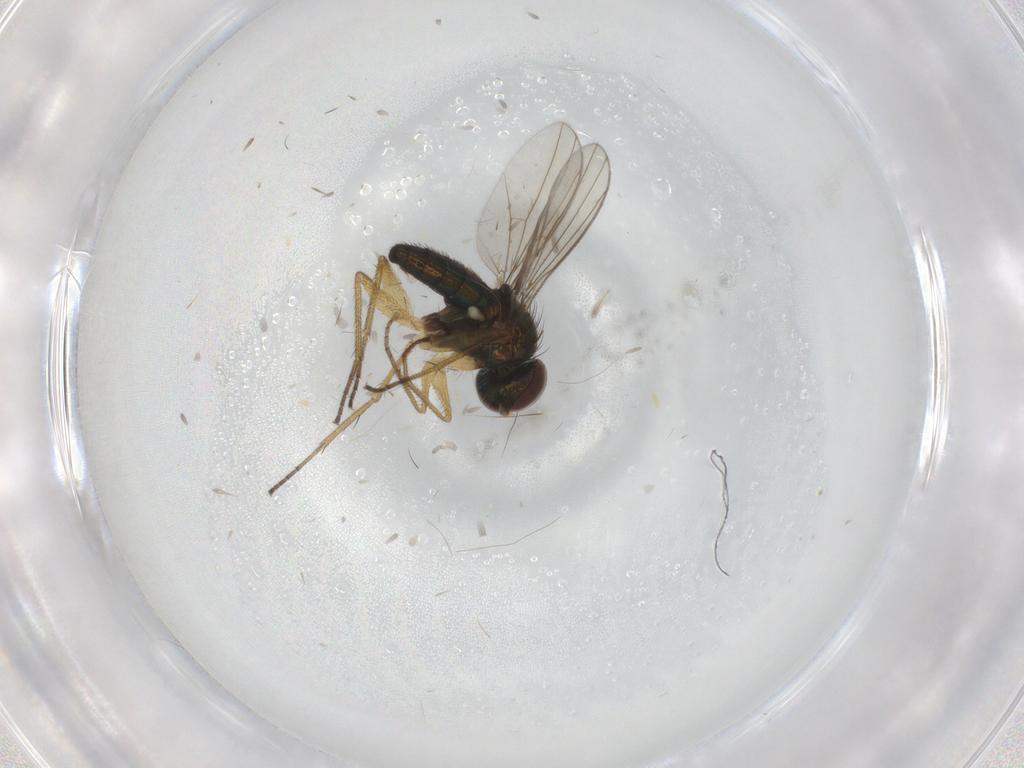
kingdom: Animalia
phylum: Arthropoda
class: Insecta
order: Diptera
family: Dolichopodidae
